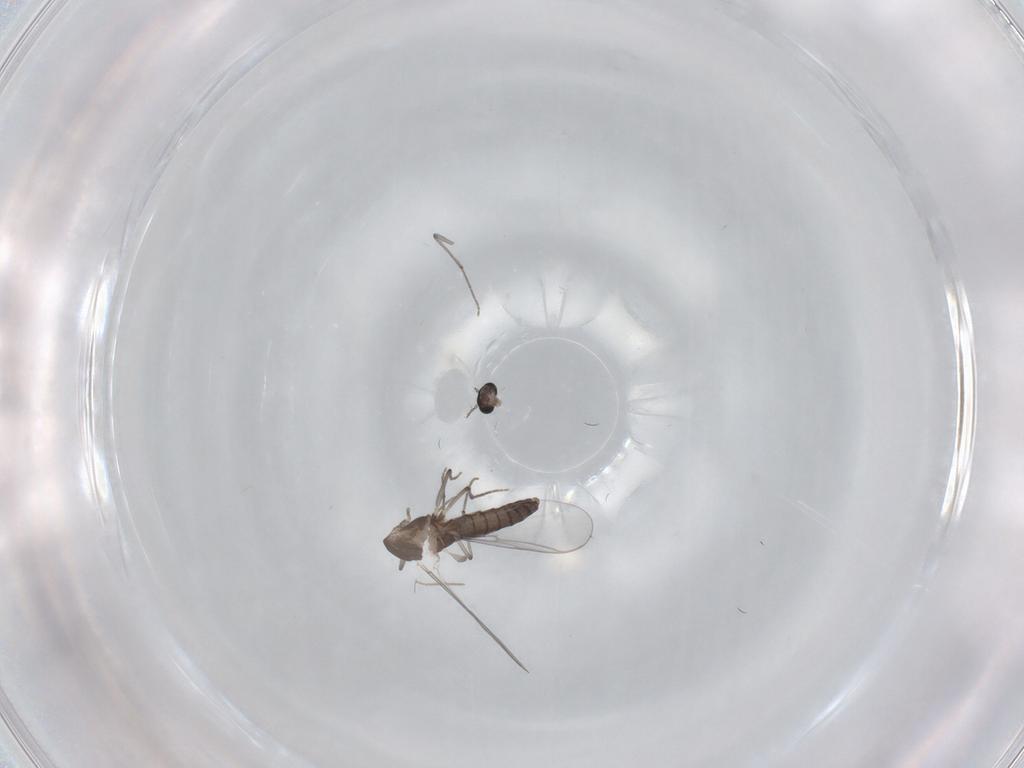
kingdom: Animalia
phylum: Arthropoda
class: Insecta
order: Diptera
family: Chironomidae
